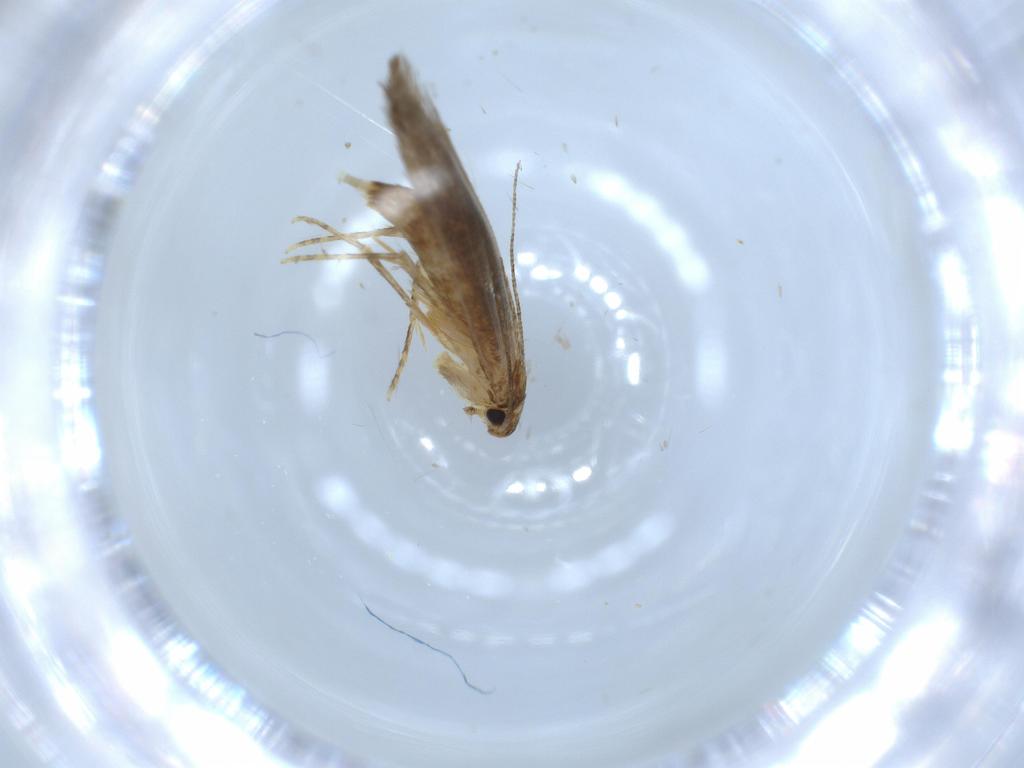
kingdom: Animalia
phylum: Arthropoda
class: Insecta
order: Lepidoptera
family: Tineidae
